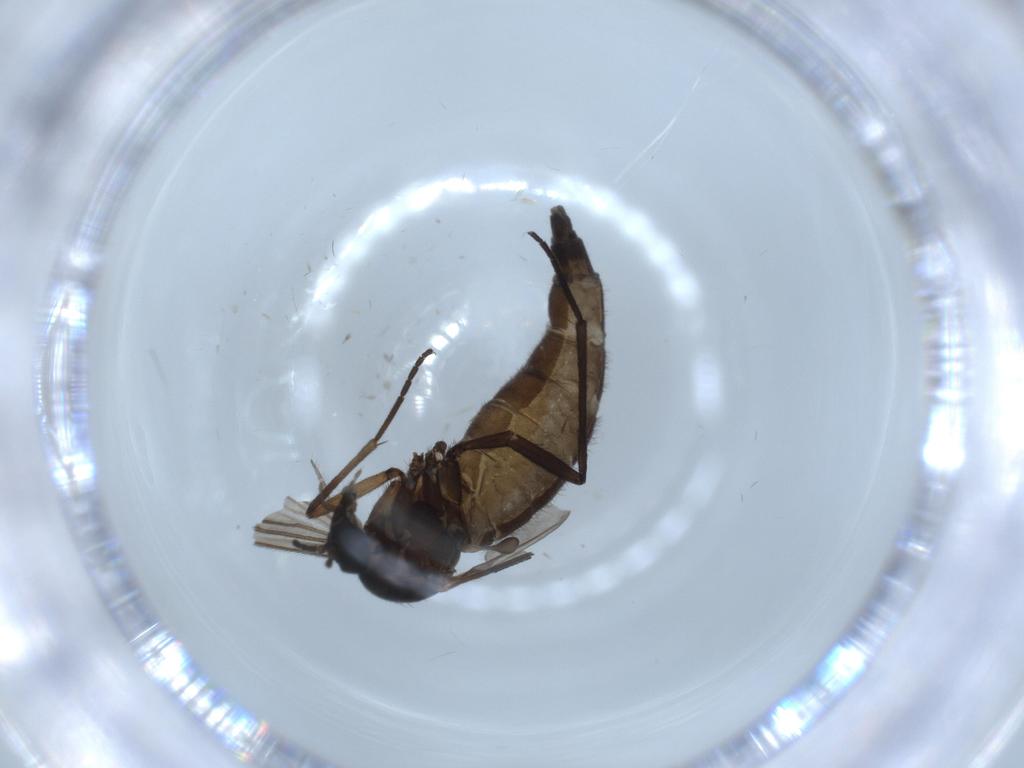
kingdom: Animalia
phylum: Arthropoda
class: Insecta
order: Diptera
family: Sciaridae
